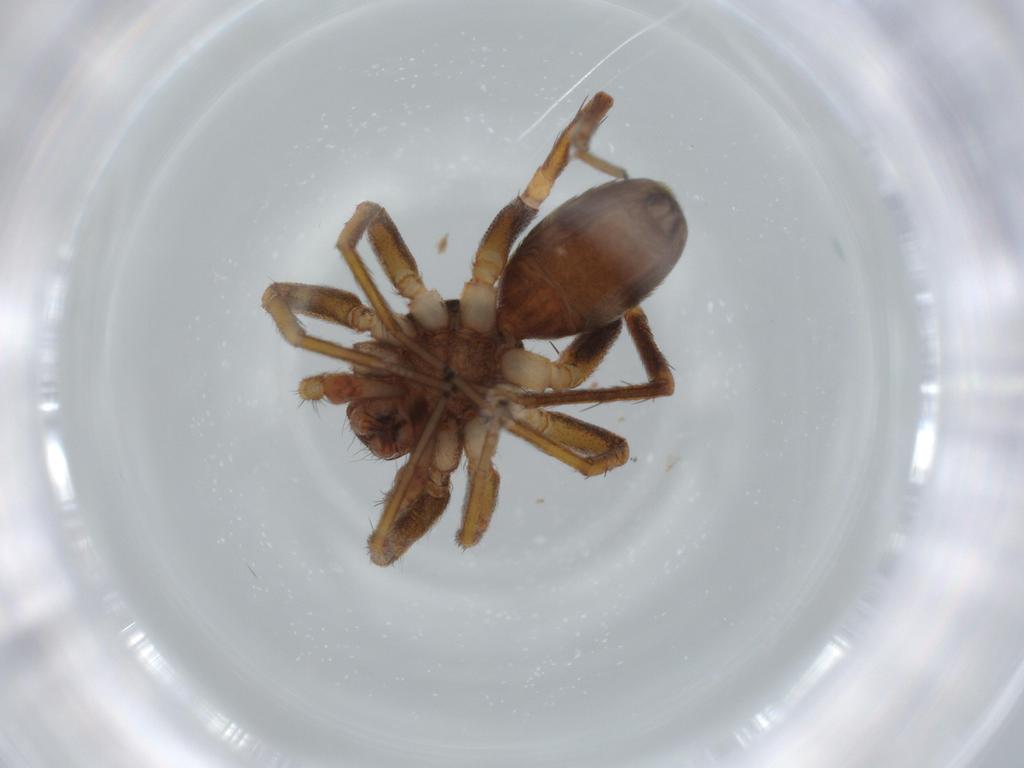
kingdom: Animalia
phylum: Arthropoda
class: Arachnida
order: Araneae
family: Corinnidae
